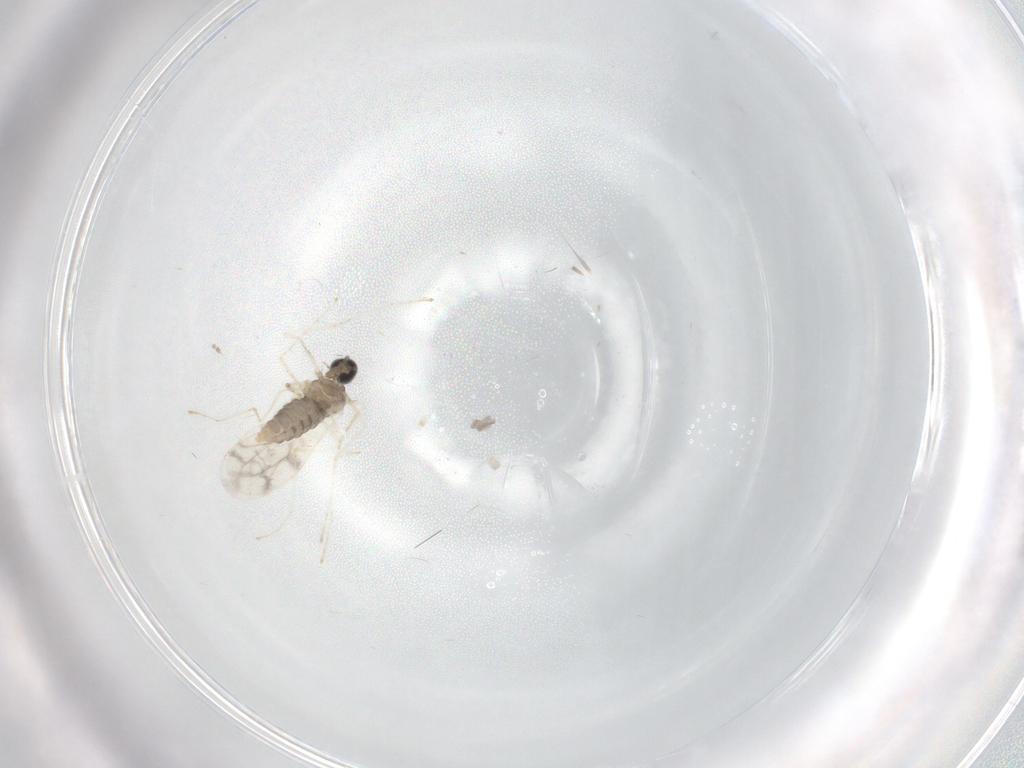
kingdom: Animalia
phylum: Arthropoda
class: Insecta
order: Diptera
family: Cecidomyiidae
